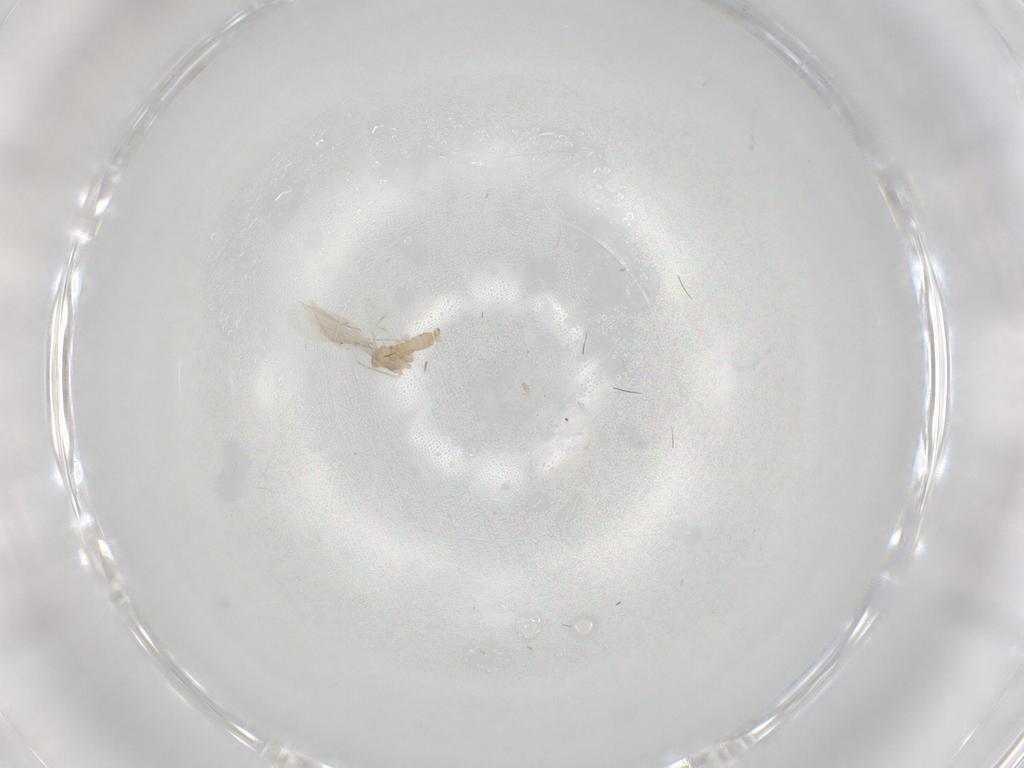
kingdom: Animalia
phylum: Arthropoda
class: Insecta
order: Diptera
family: Cecidomyiidae
